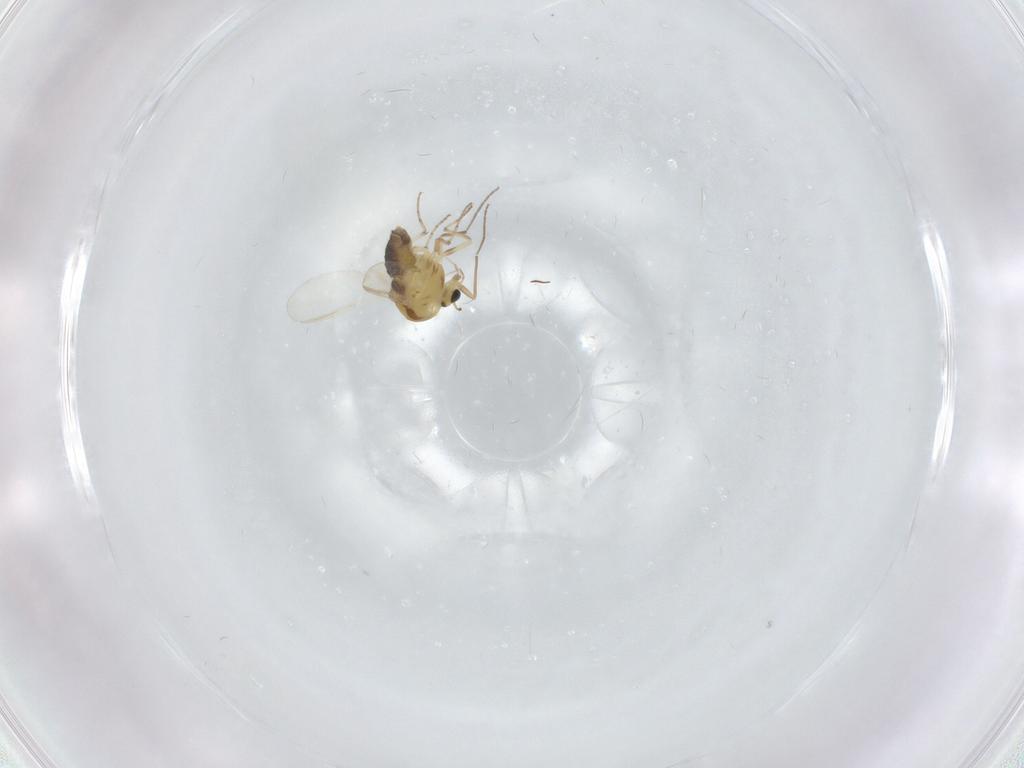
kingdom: Animalia
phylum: Arthropoda
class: Insecta
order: Diptera
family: Chironomidae
